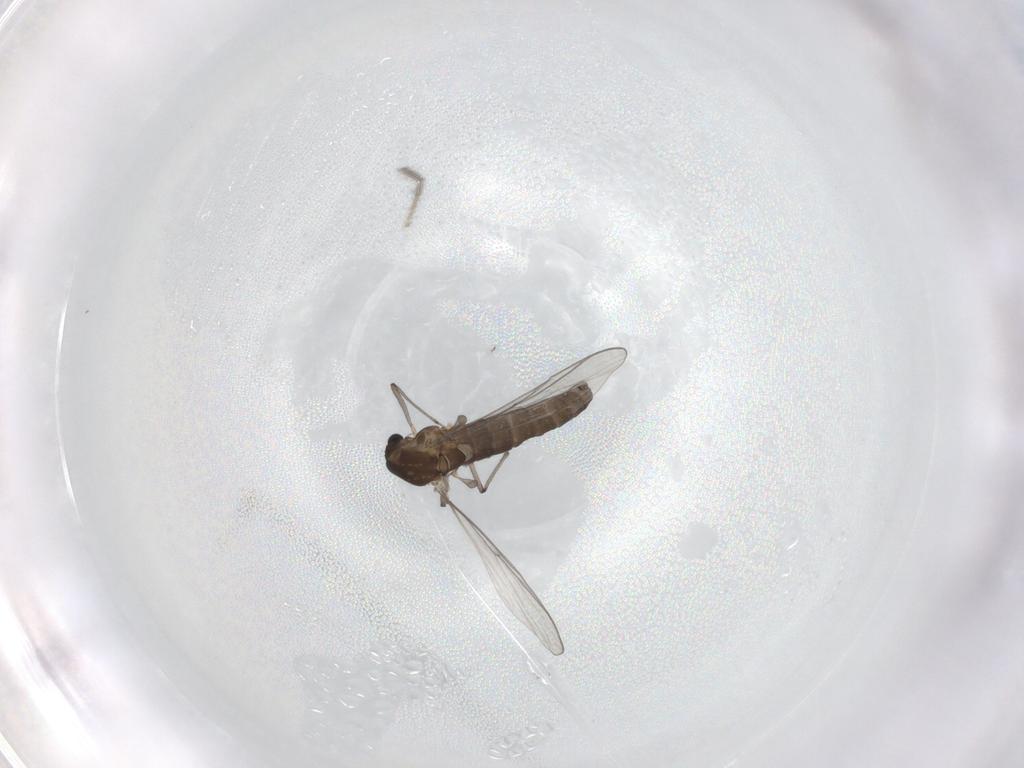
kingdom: Animalia
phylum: Arthropoda
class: Insecta
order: Diptera
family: Chironomidae
